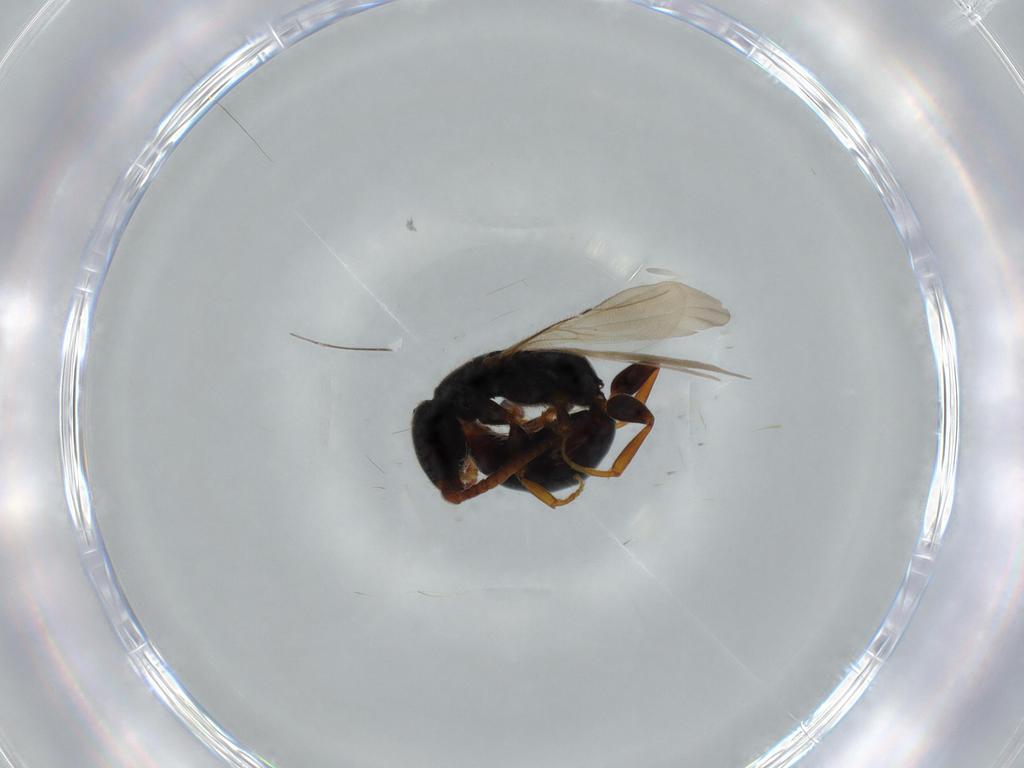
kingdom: Animalia
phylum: Arthropoda
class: Insecta
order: Hymenoptera
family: Bethylidae
